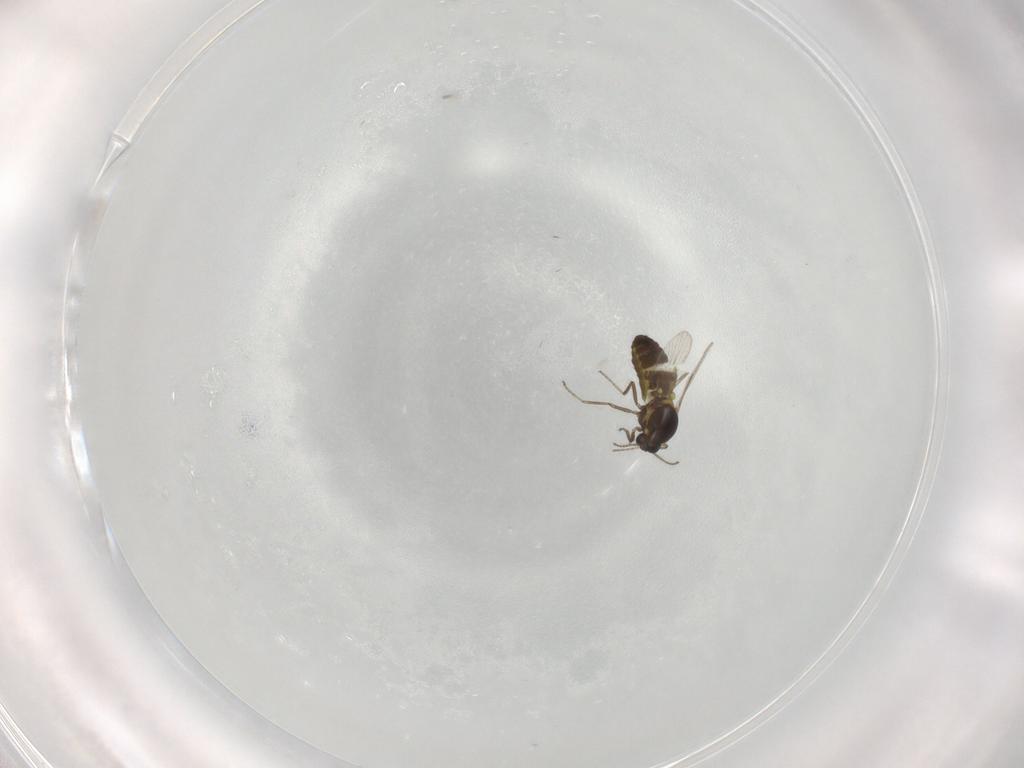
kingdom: Animalia
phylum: Arthropoda
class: Insecta
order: Diptera
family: Ceratopogonidae
